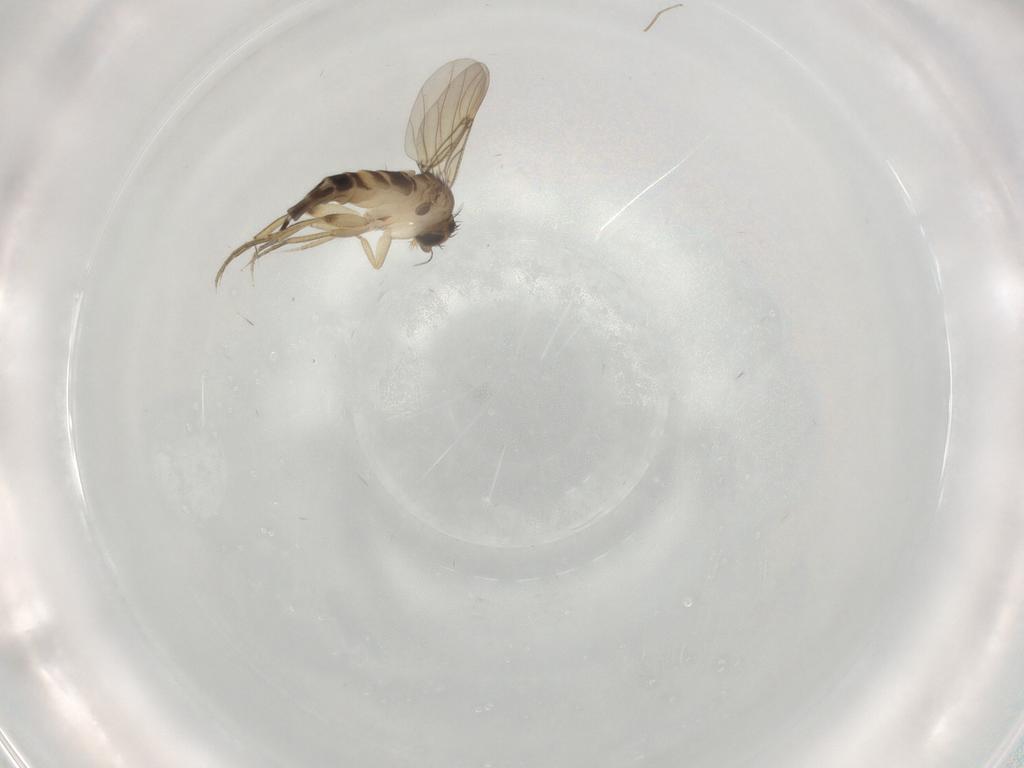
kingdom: Animalia
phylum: Arthropoda
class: Insecta
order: Diptera
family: Phoridae
